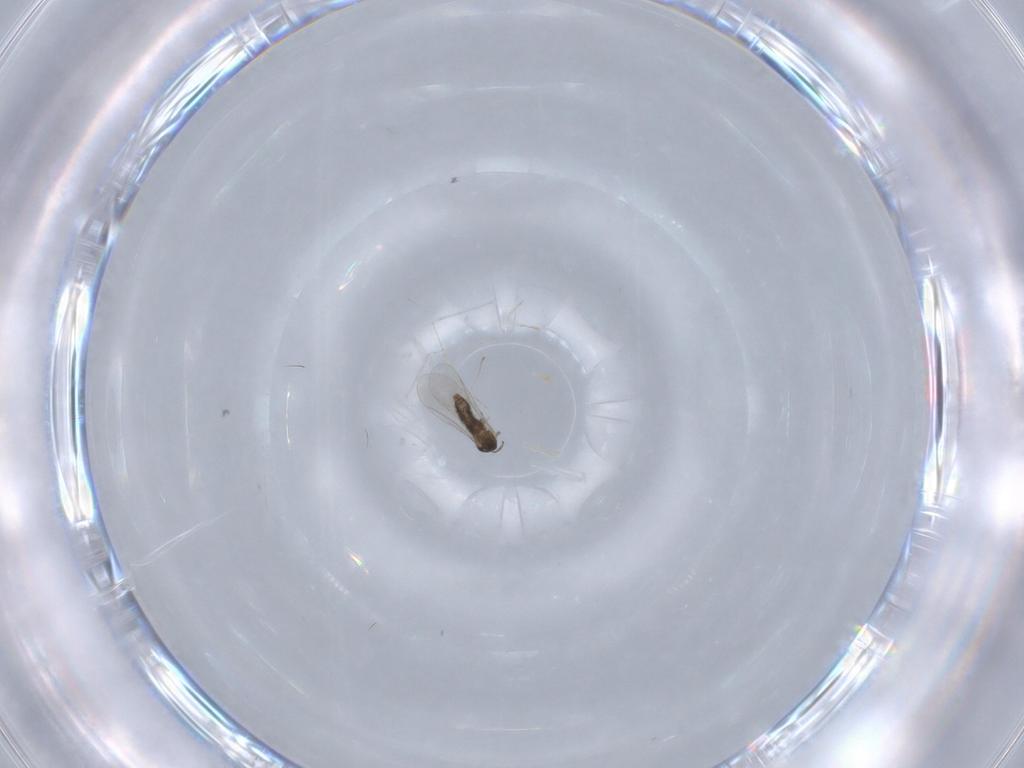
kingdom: Animalia
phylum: Arthropoda
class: Insecta
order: Diptera
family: Cecidomyiidae
